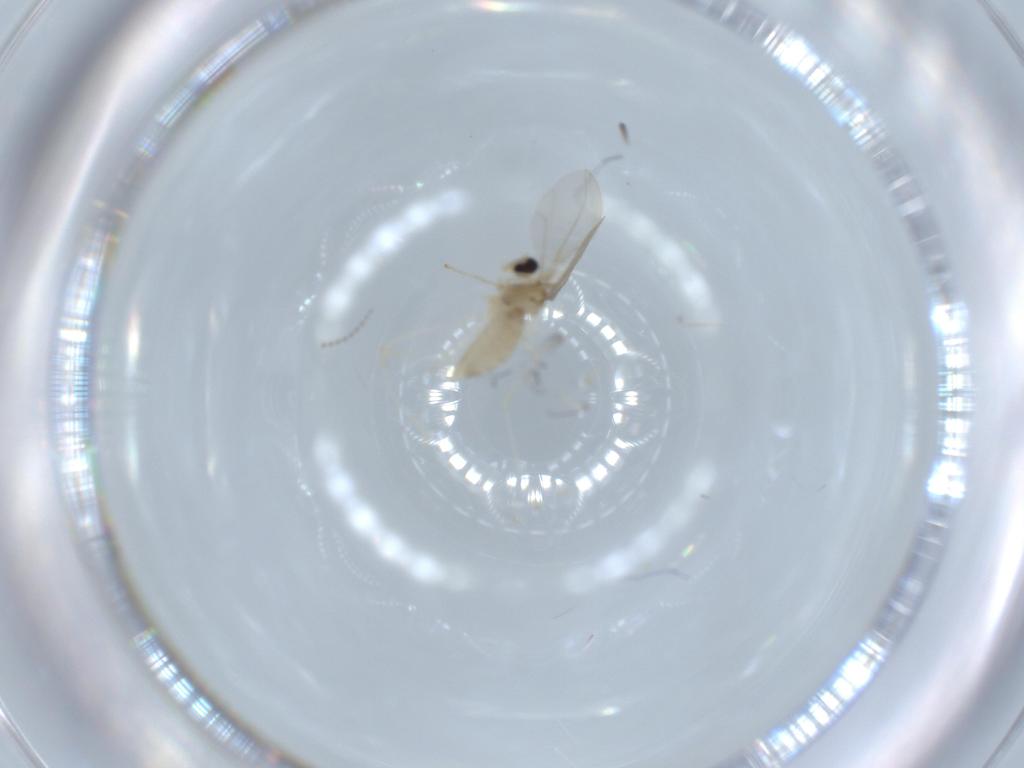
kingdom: Animalia
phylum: Arthropoda
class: Insecta
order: Diptera
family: Cecidomyiidae
